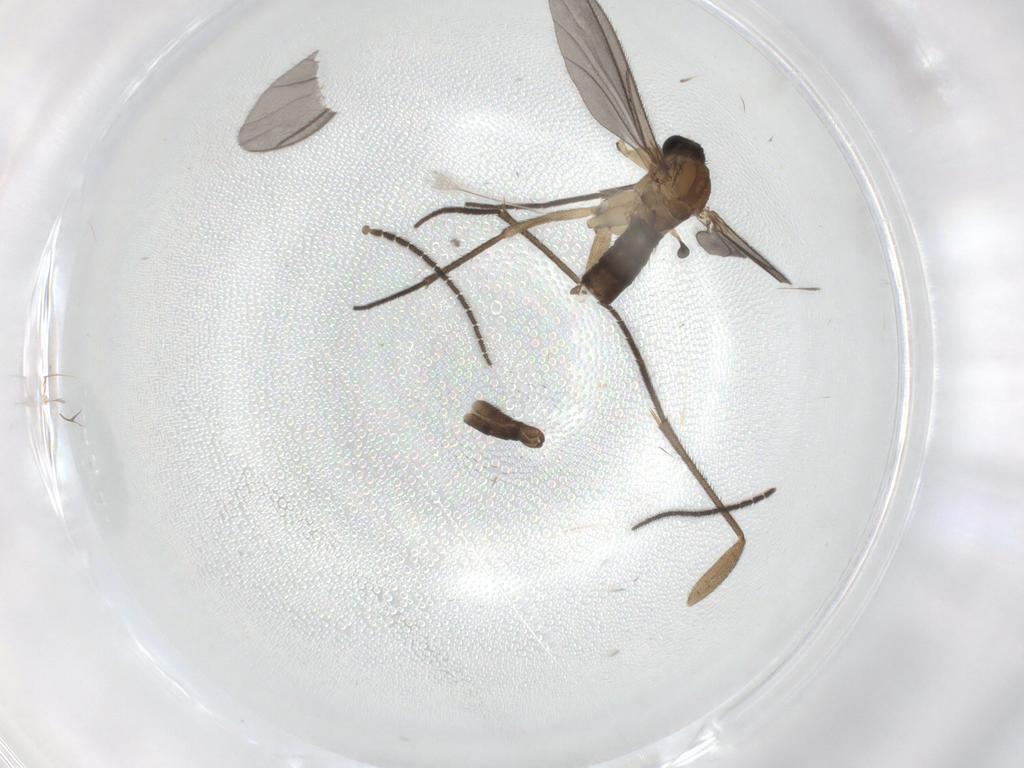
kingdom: Animalia
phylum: Arthropoda
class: Insecta
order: Diptera
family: Sciaridae
